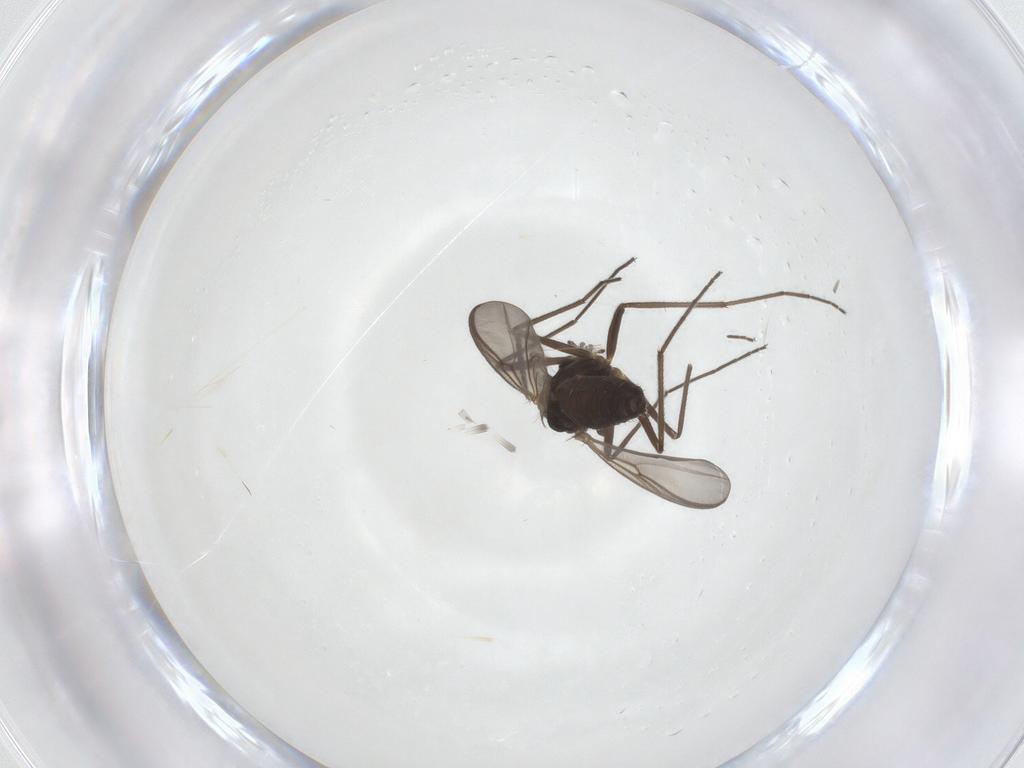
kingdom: Animalia
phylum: Arthropoda
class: Insecta
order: Diptera
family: Chironomidae
